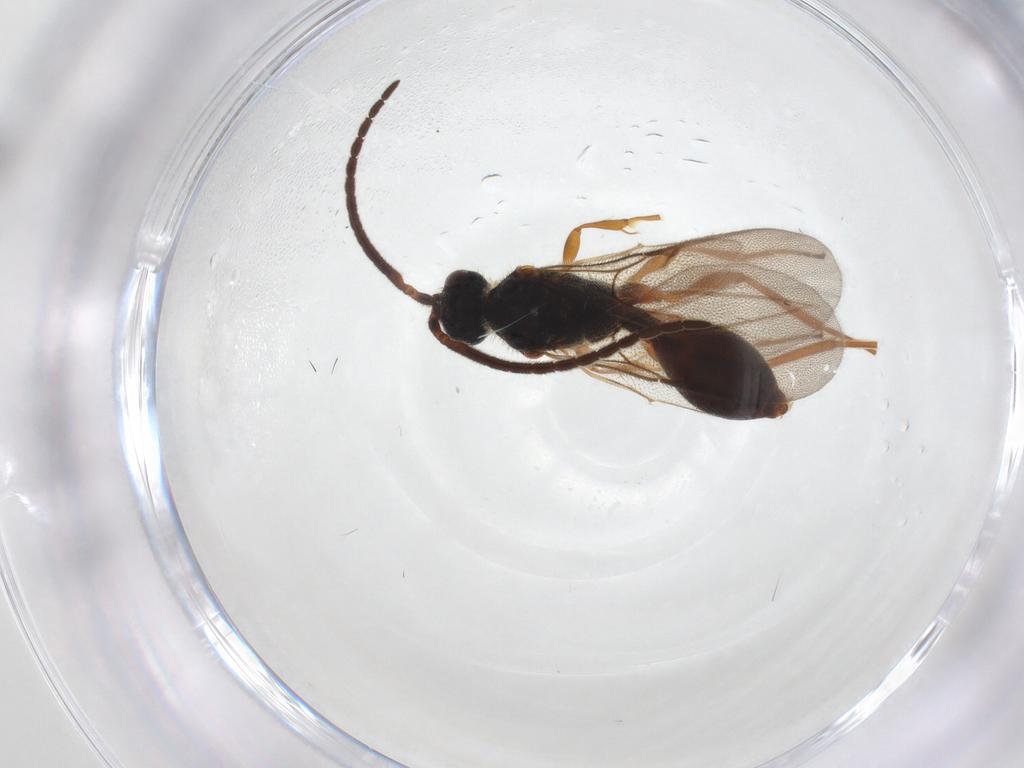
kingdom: Animalia
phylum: Arthropoda
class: Insecta
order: Hymenoptera
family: Diapriidae
